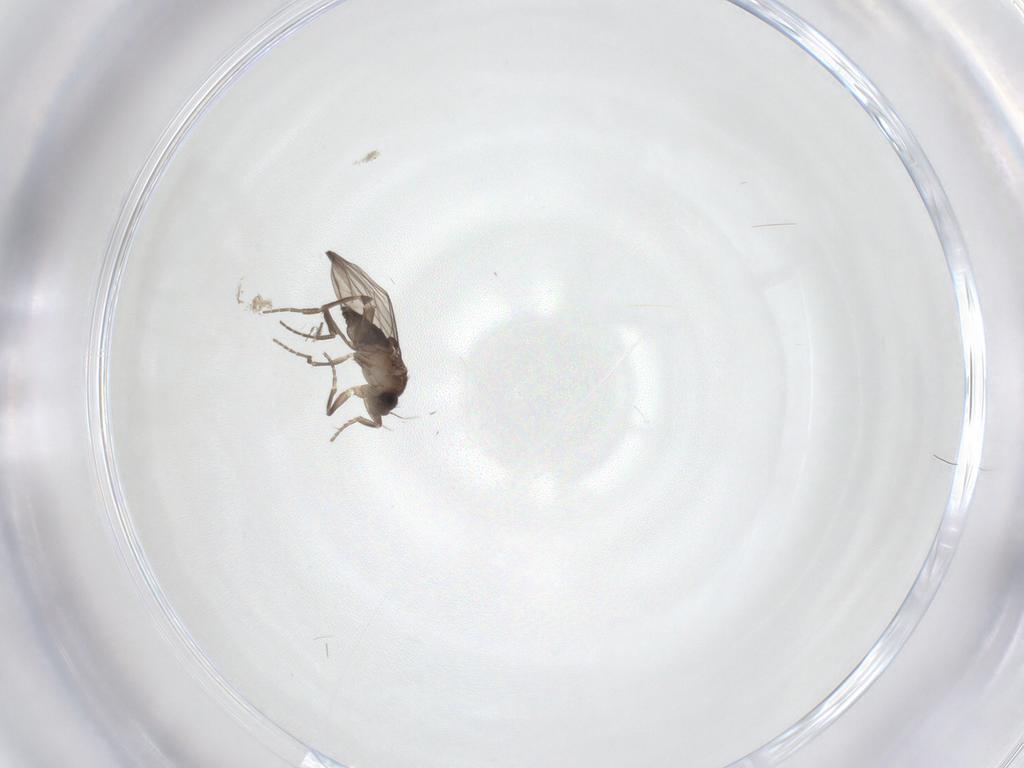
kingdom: Animalia
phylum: Arthropoda
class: Insecta
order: Diptera
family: Phoridae
